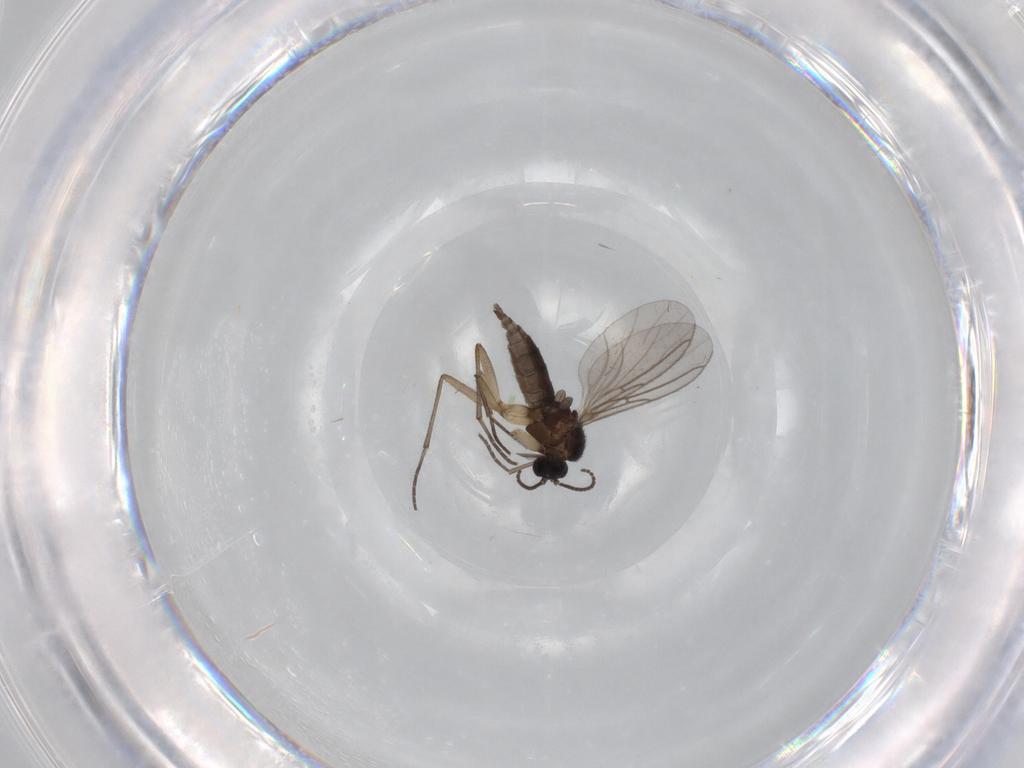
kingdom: Animalia
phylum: Arthropoda
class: Insecta
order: Diptera
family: Sciaridae
